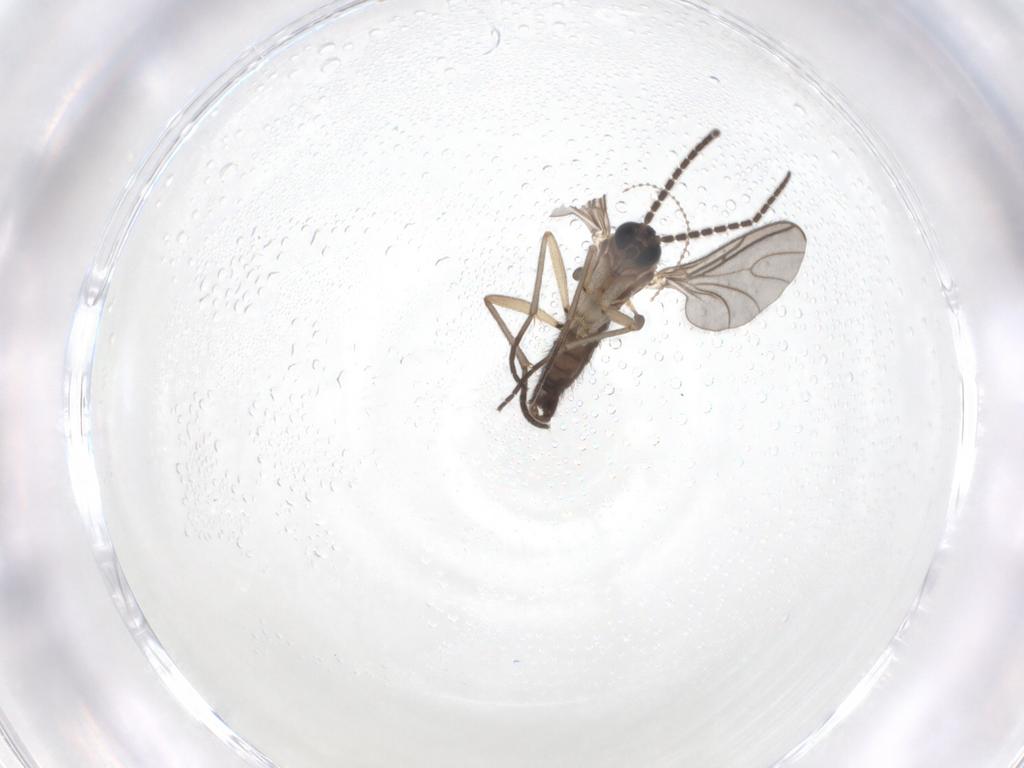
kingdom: Animalia
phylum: Arthropoda
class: Insecta
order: Diptera
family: Sciaridae
